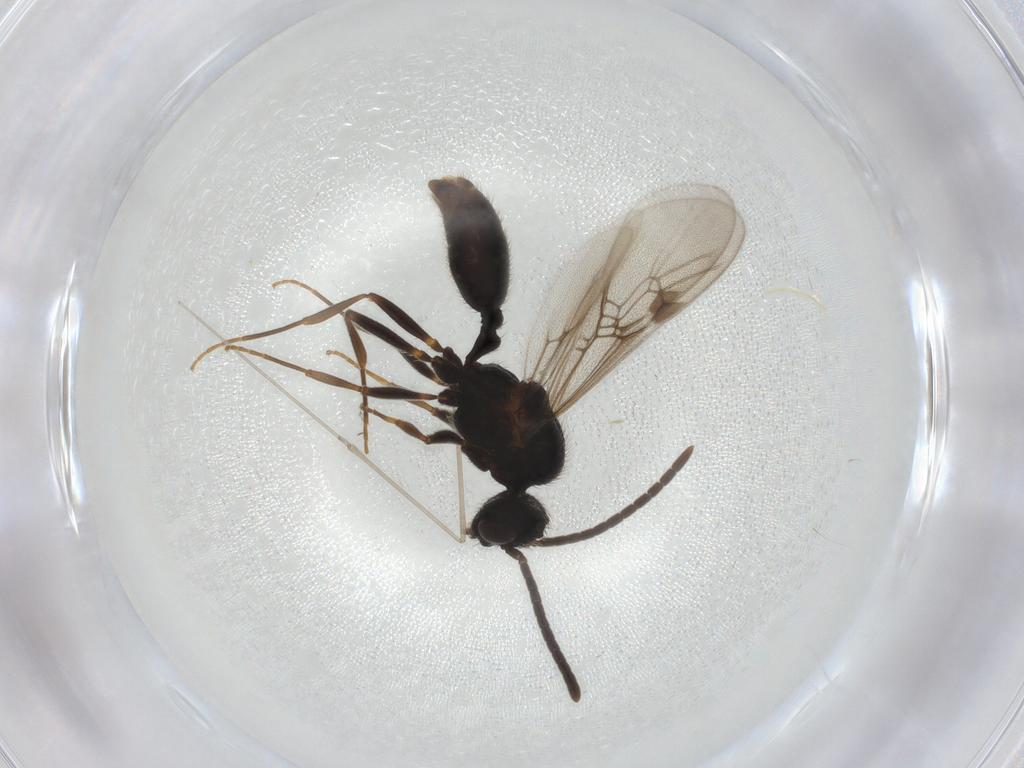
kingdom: Animalia
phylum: Arthropoda
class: Insecta
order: Hymenoptera
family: Formicidae
